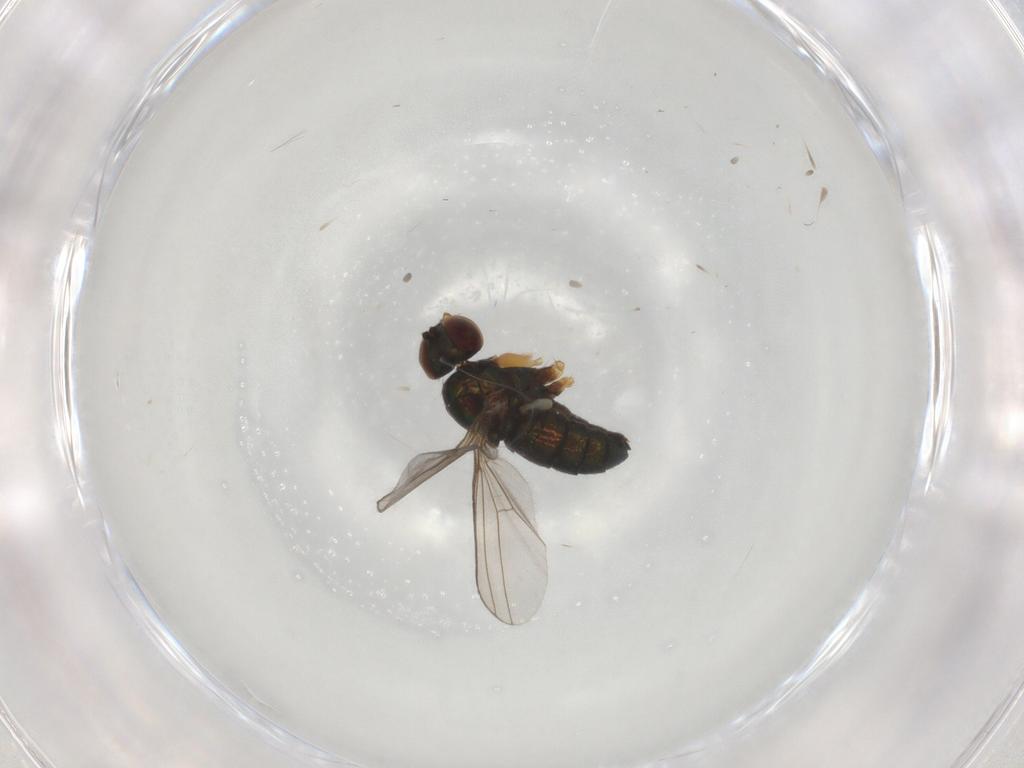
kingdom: Animalia
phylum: Arthropoda
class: Insecta
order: Diptera
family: Dolichopodidae
